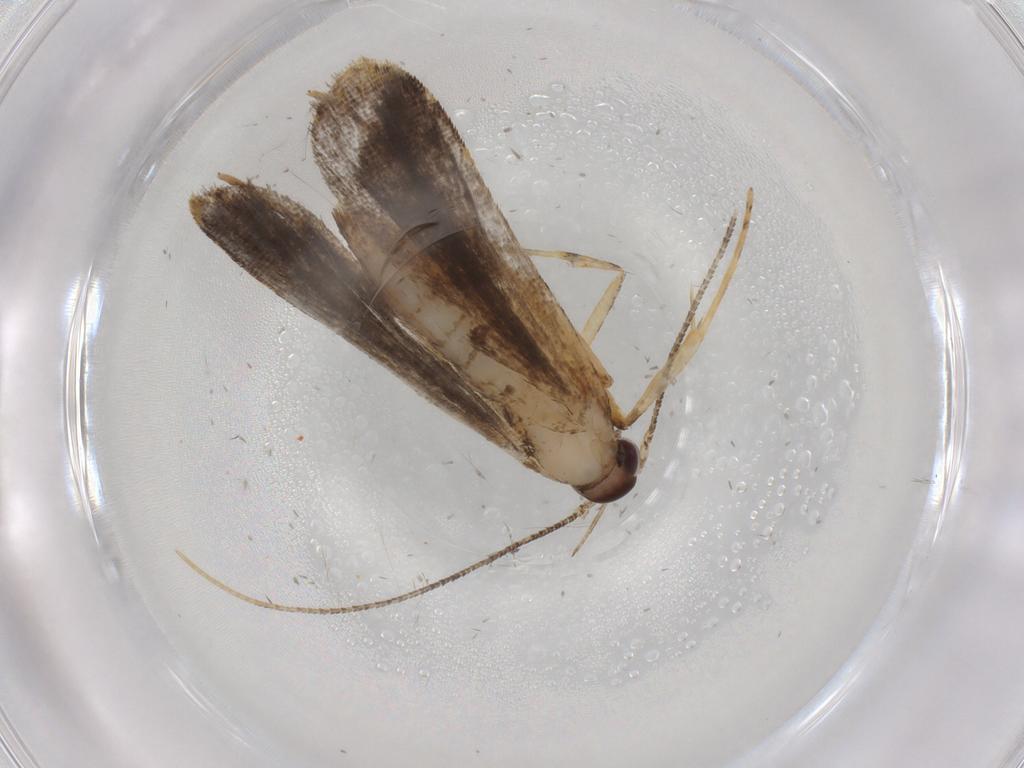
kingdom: Animalia
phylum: Arthropoda
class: Insecta
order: Lepidoptera
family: Cosmopterigidae
